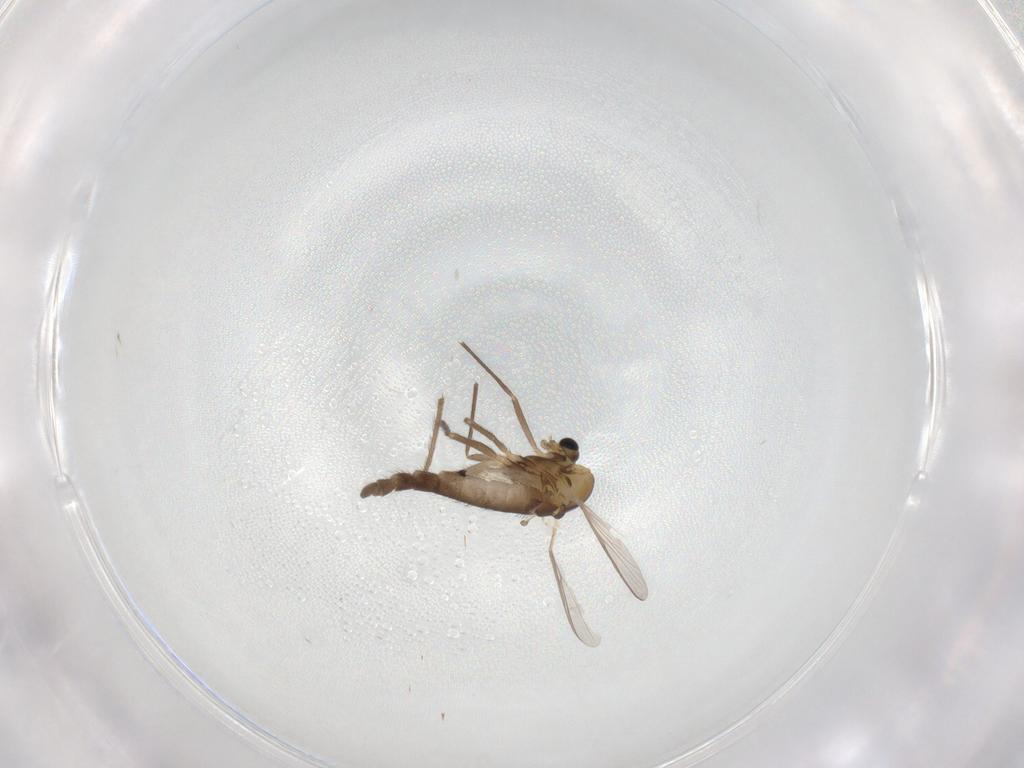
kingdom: Animalia
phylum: Arthropoda
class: Insecta
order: Diptera
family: Chironomidae
